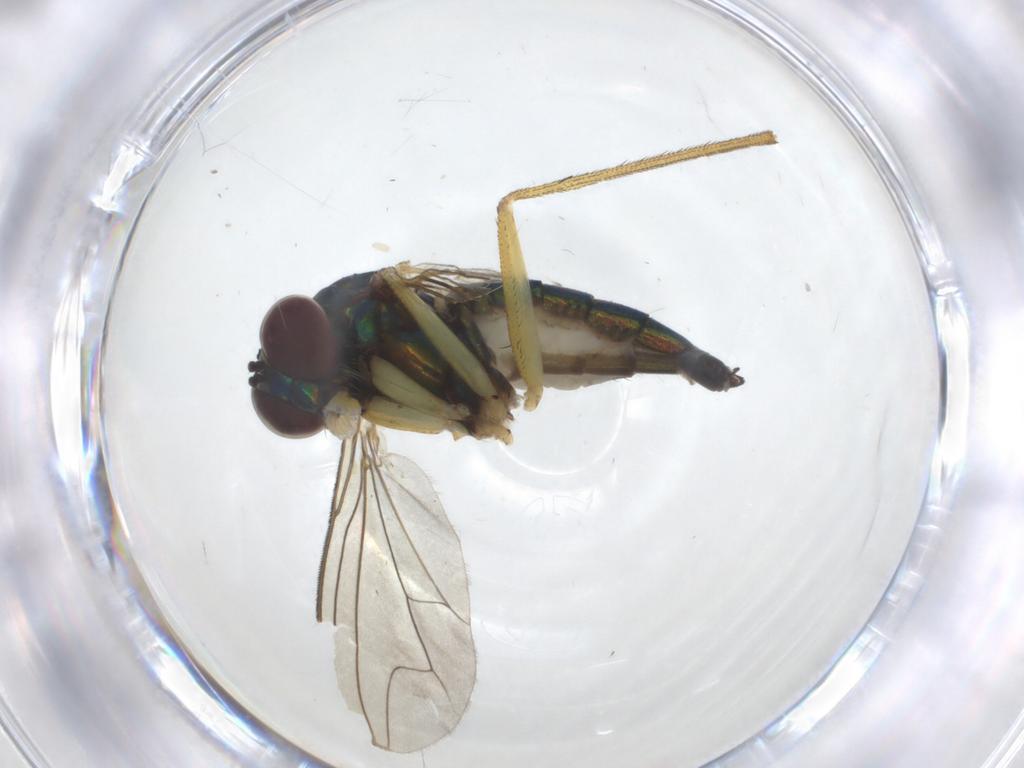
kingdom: Animalia
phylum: Arthropoda
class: Insecta
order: Diptera
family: Dolichopodidae
